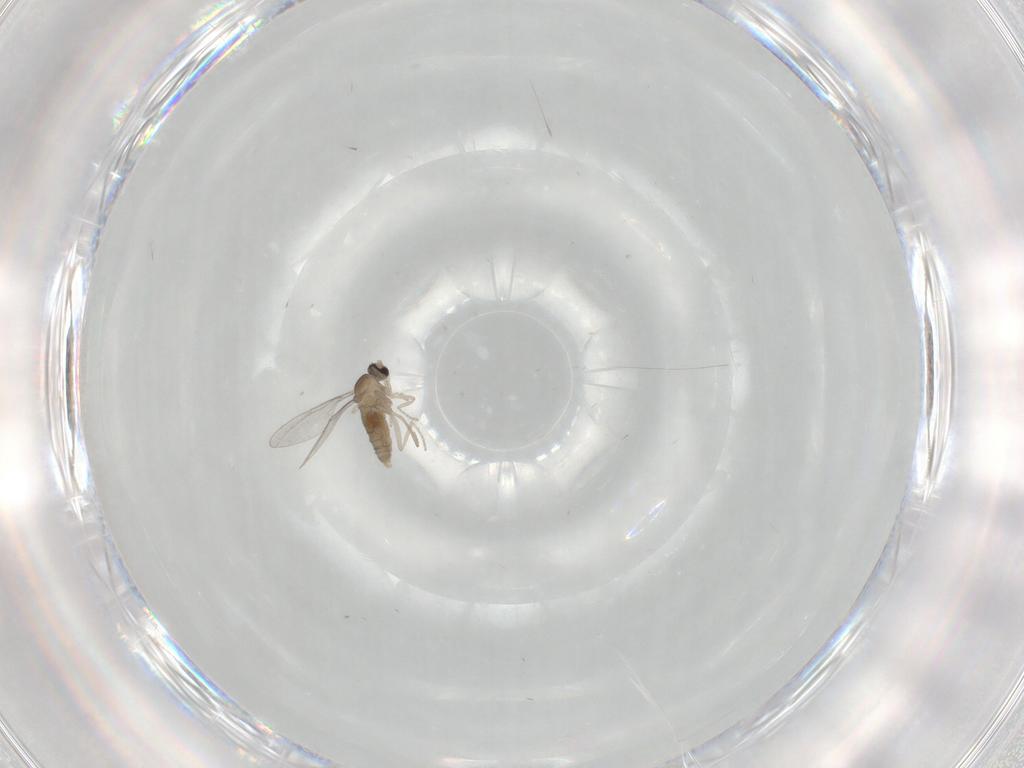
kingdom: Animalia
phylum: Arthropoda
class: Insecta
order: Diptera
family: Cecidomyiidae
